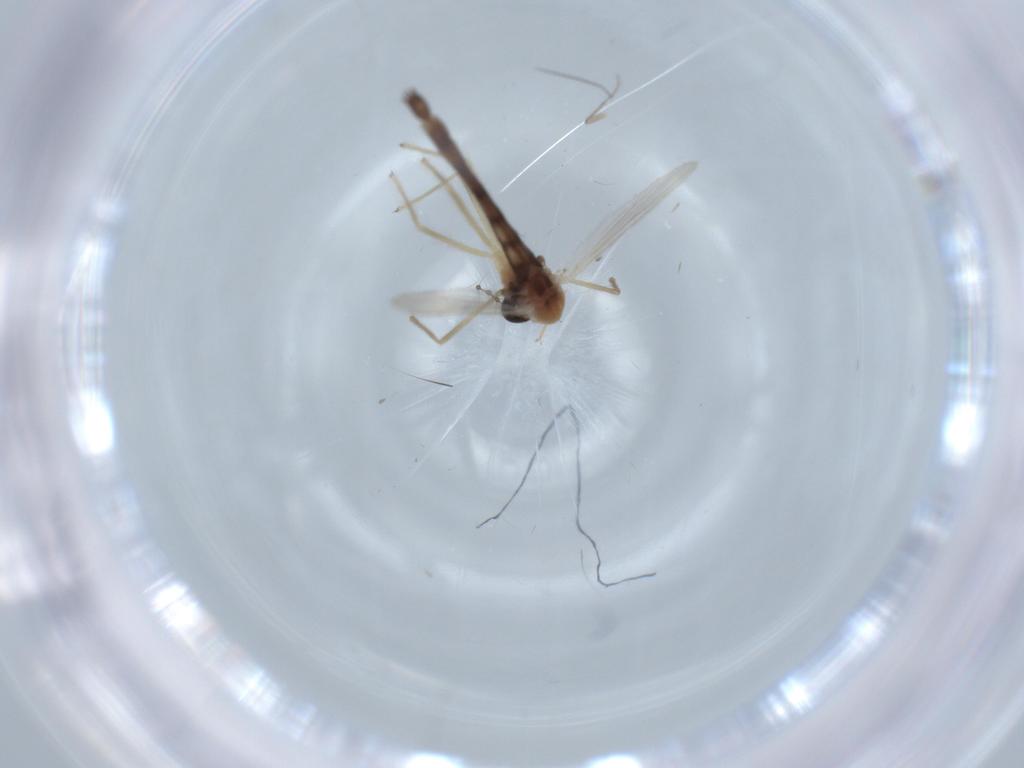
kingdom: Animalia
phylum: Arthropoda
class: Insecta
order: Diptera
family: Chironomidae
